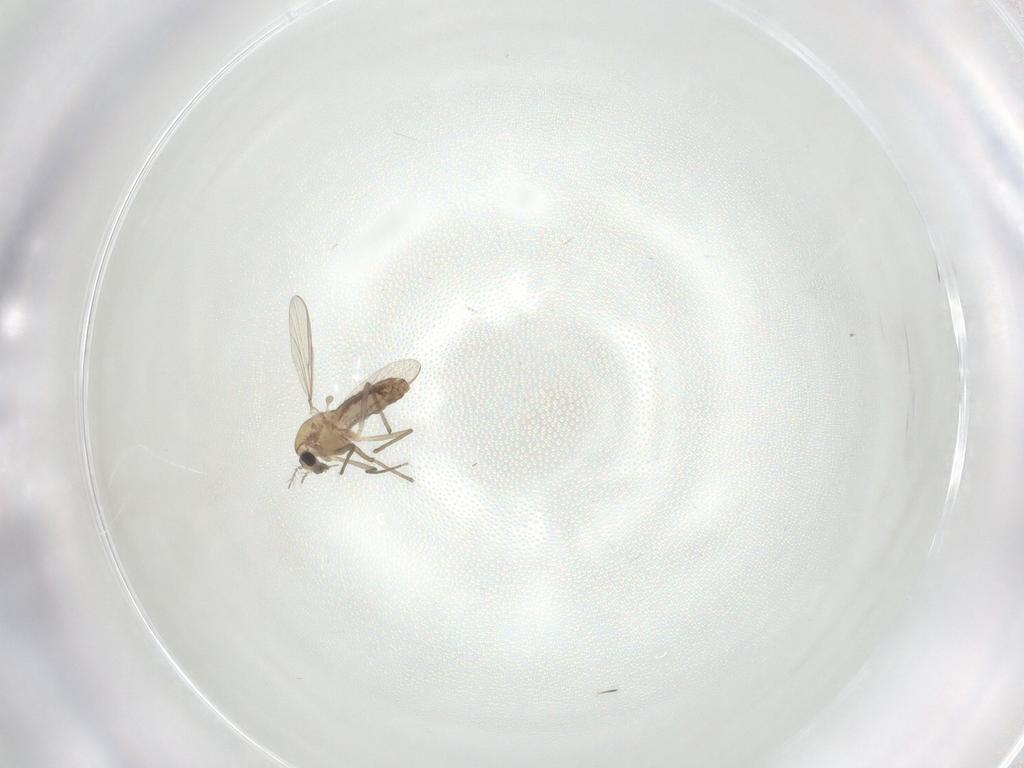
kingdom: Animalia
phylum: Arthropoda
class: Insecta
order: Diptera
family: Chironomidae
